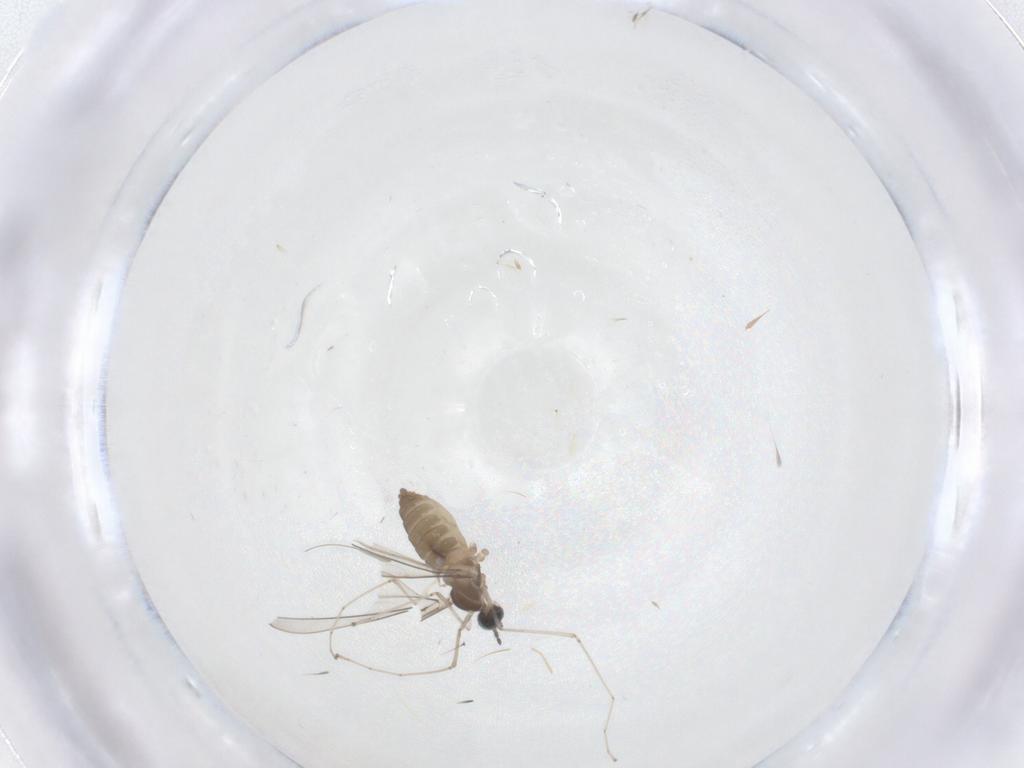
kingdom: Animalia
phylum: Arthropoda
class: Insecta
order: Diptera
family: Cecidomyiidae
